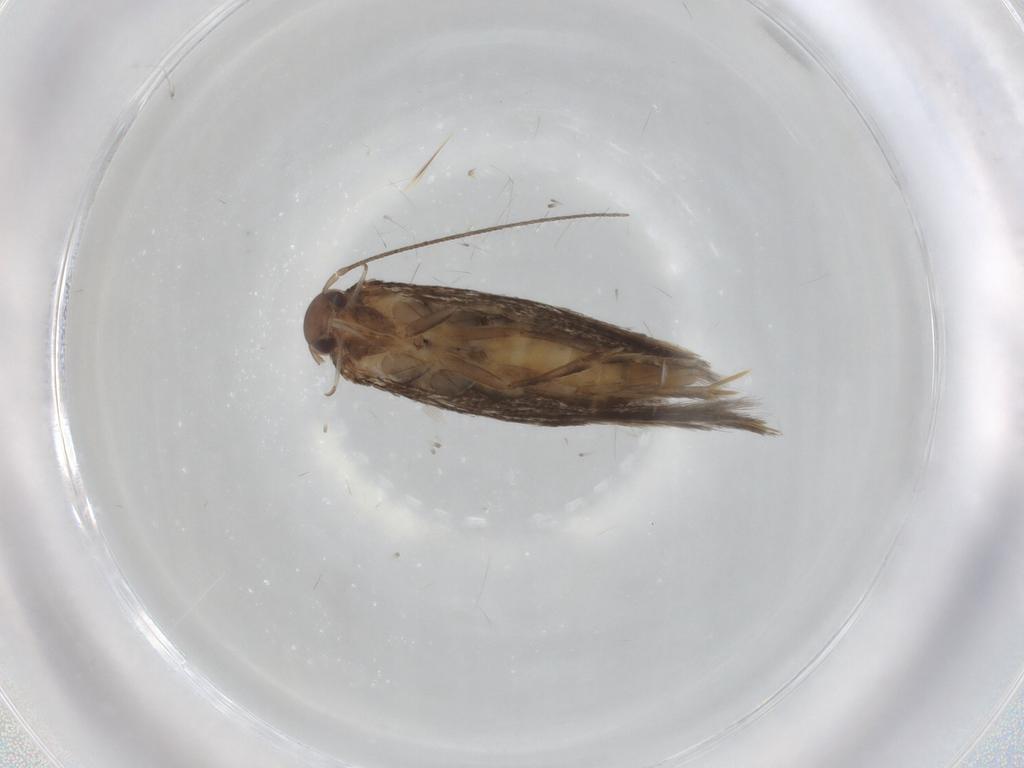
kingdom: Animalia
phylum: Arthropoda
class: Insecta
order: Lepidoptera
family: Elachistidae
